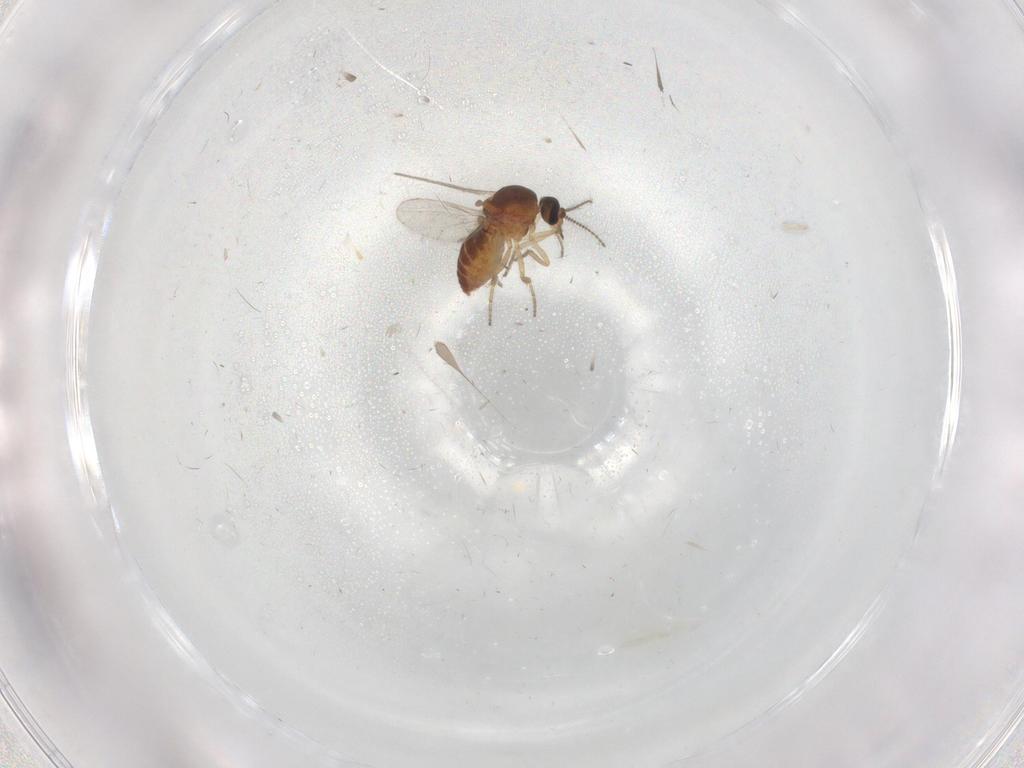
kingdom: Animalia
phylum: Arthropoda
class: Insecta
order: Diptera
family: Ceratopogonidae
